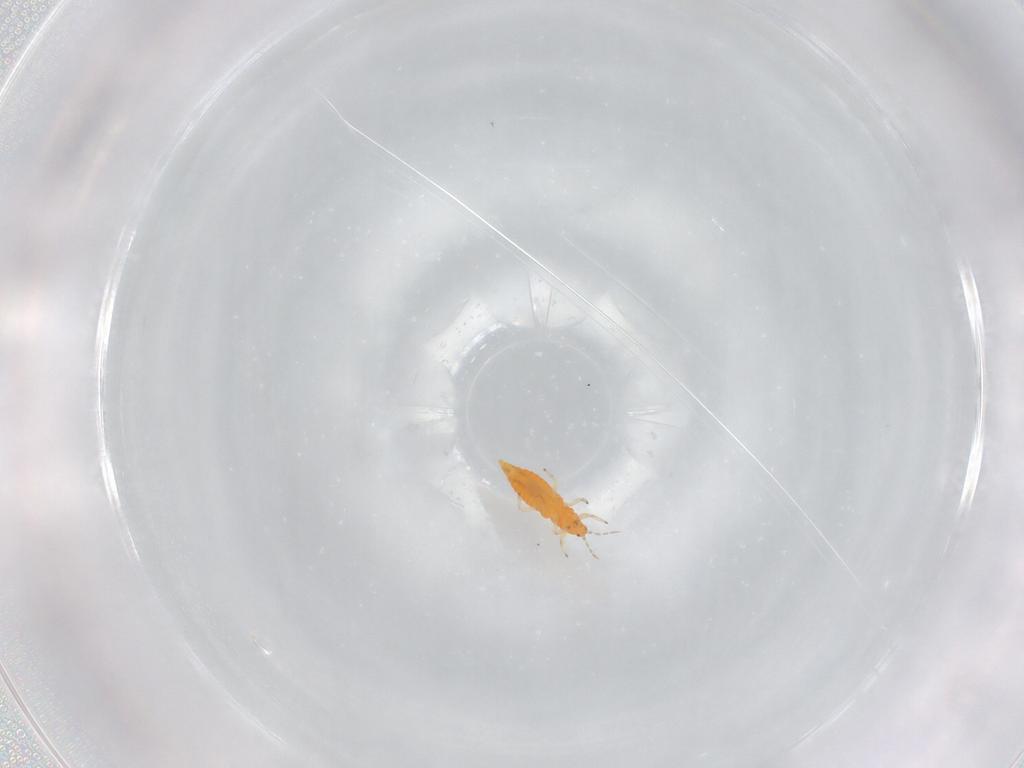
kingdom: Animalia
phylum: Arthropoda
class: Insecta
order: Thysanoptera
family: Aeolothripidae
